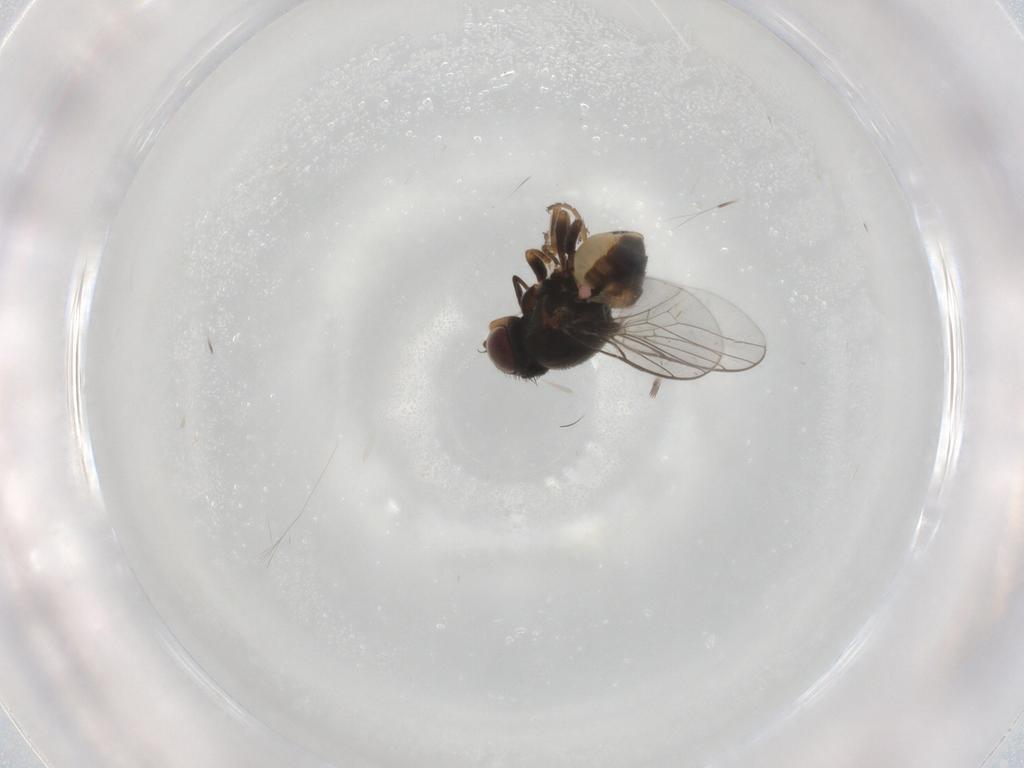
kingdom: Animalia
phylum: Arthropoda
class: Insecta
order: Diptera
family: Chloropidae
